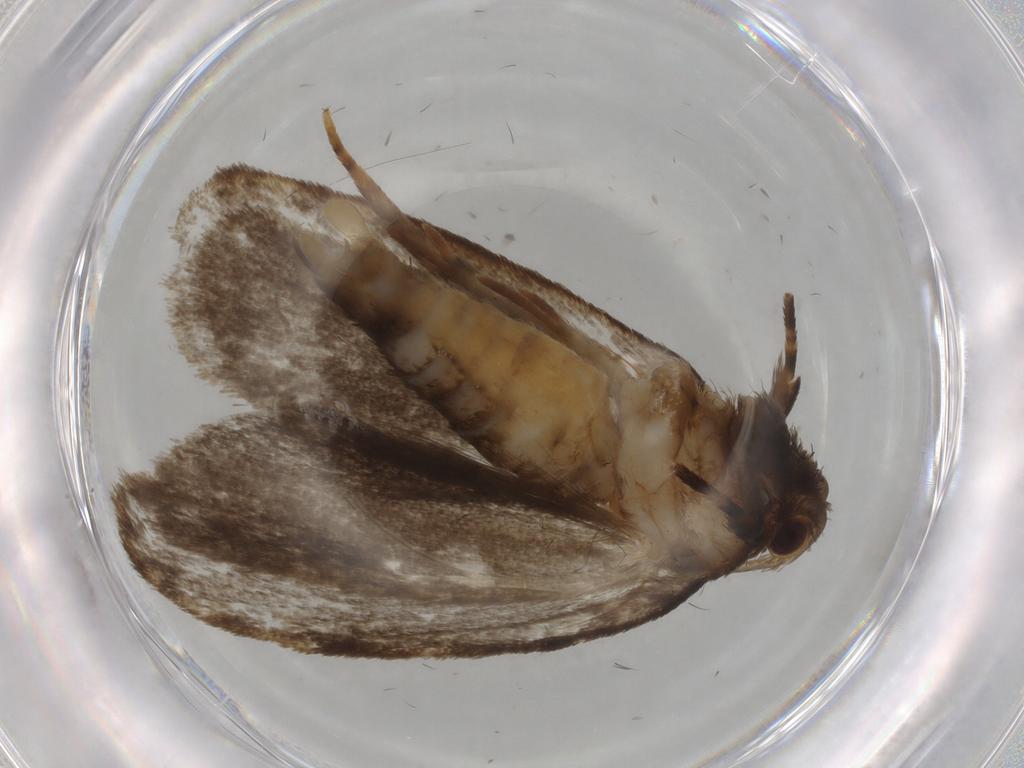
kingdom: Animalia
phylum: Arthropoda
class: Insecta
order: Lepidoptera
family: Tineidae
